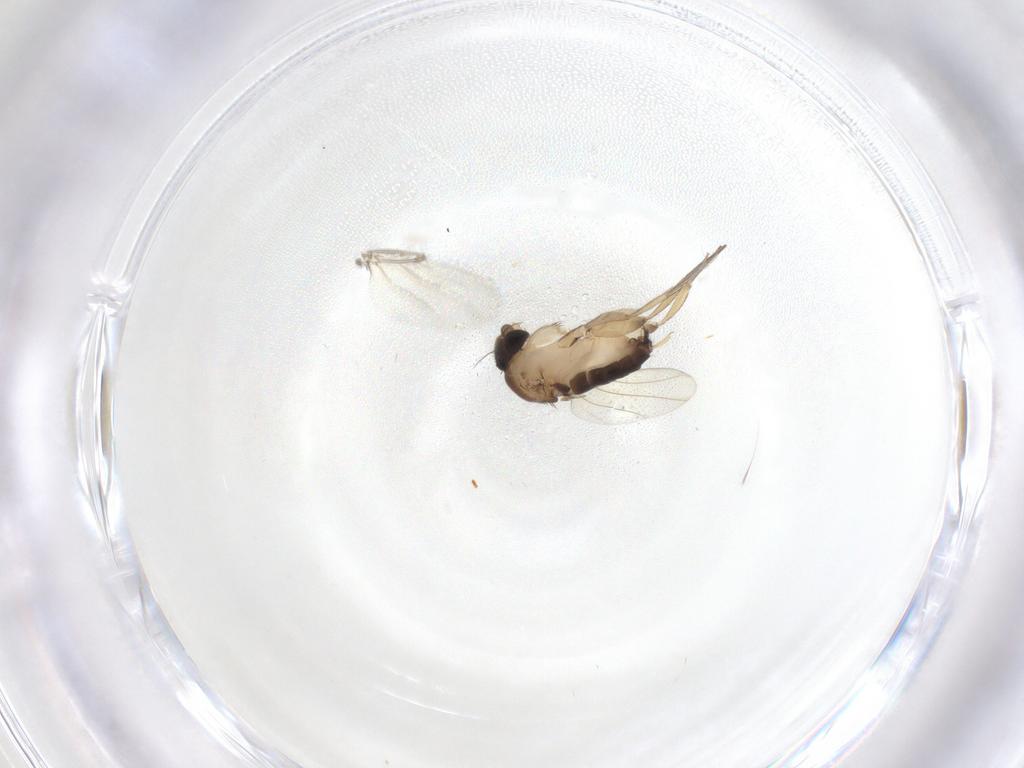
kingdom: Animalia
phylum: Arthropoda
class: Insecta
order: Diptera
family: Phoridae
